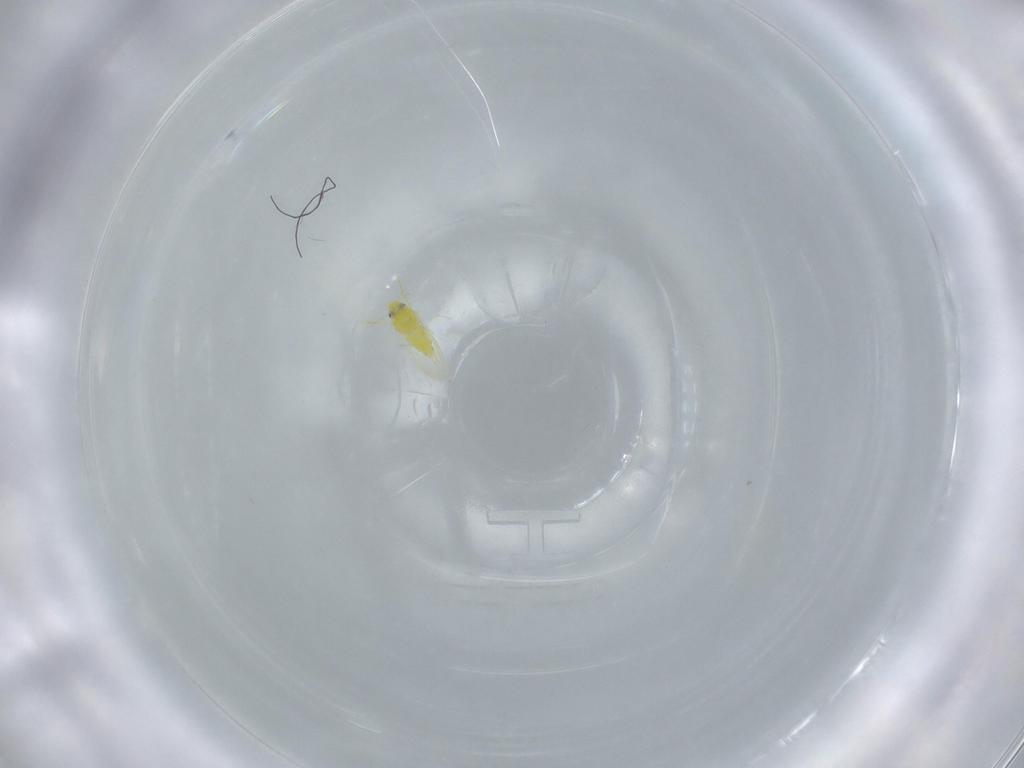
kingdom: Animalia
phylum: Arthropoda
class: Insecta
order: Hemiptera
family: Aleyrodidae
